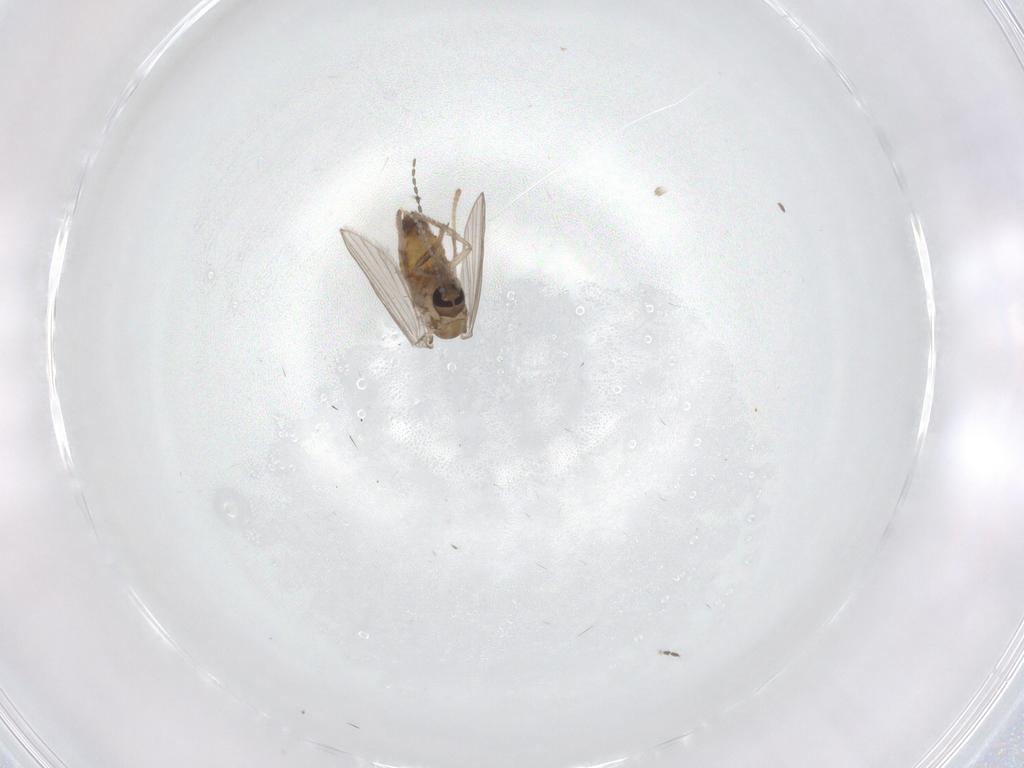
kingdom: Animalia
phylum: Arthropoda
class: Insecta
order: Diptera
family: Psychodidae
